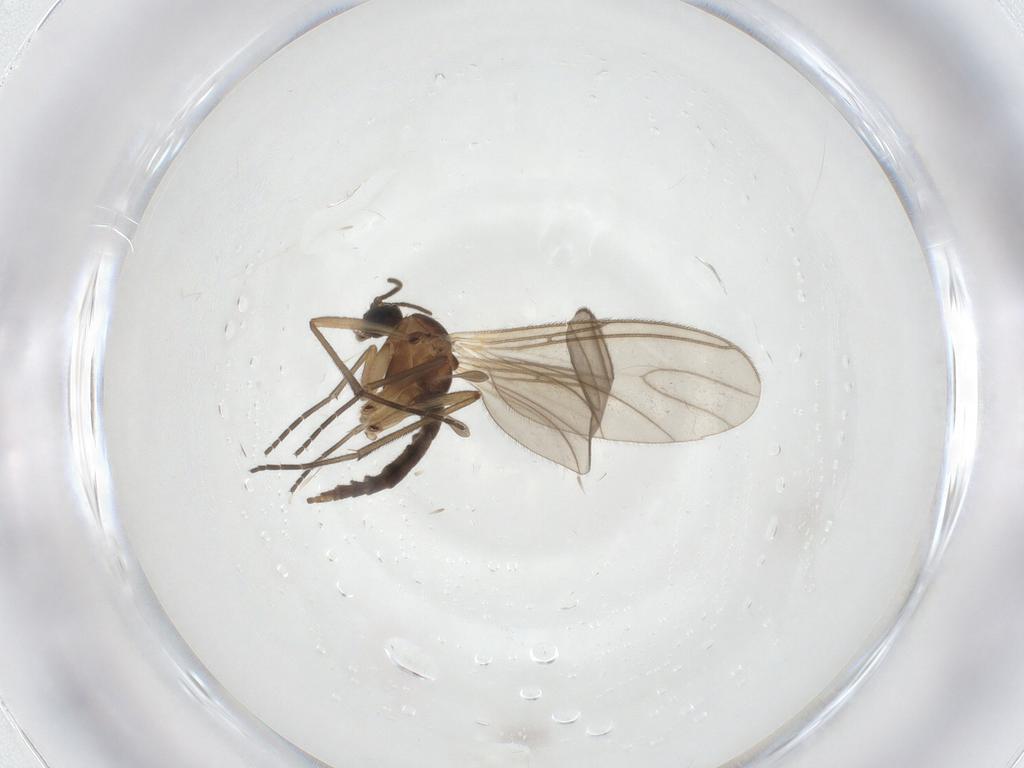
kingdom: Animalia
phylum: Arthropoda
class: Insecta
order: Diptera
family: Sciaridae
